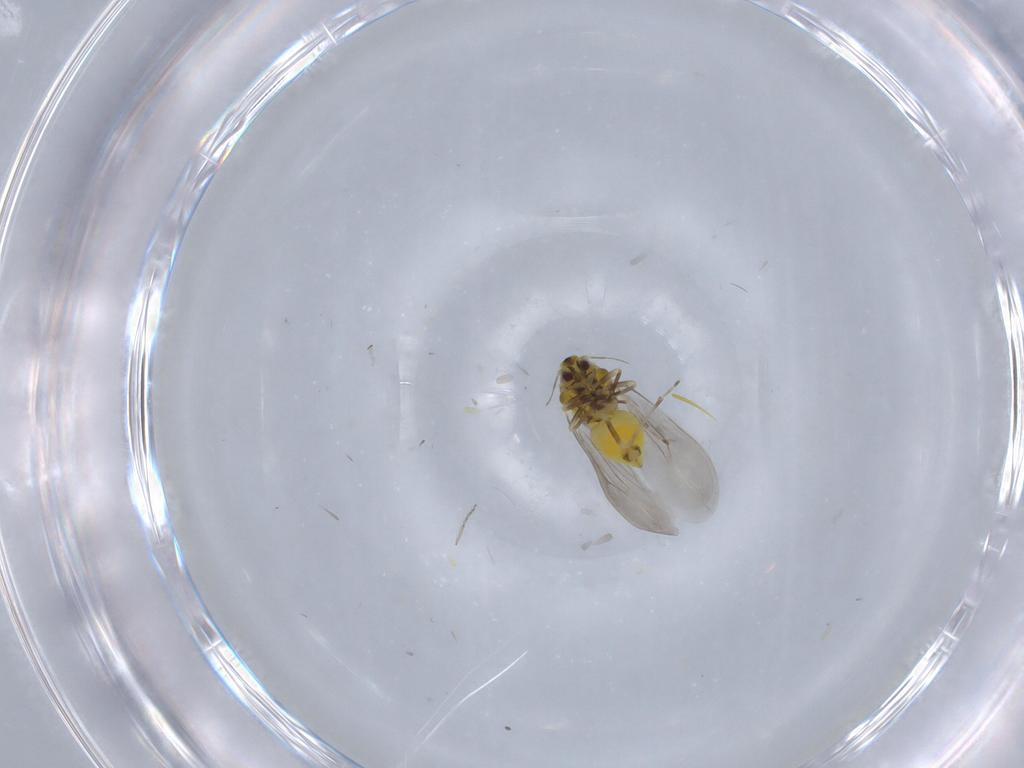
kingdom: Animalia
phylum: Arthropoda
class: Insecta
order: Hemiptera
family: Aleyrodidae
